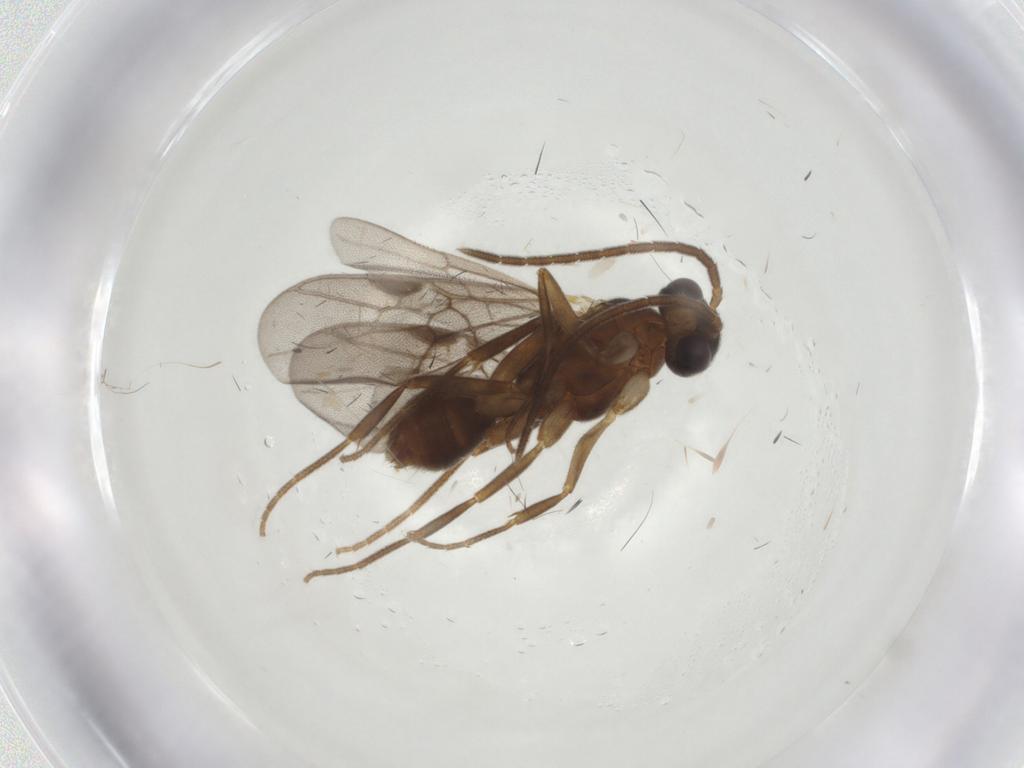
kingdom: Animalia
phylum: Arthropoda
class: Insecta
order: Hymenoptera
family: Formicidae
